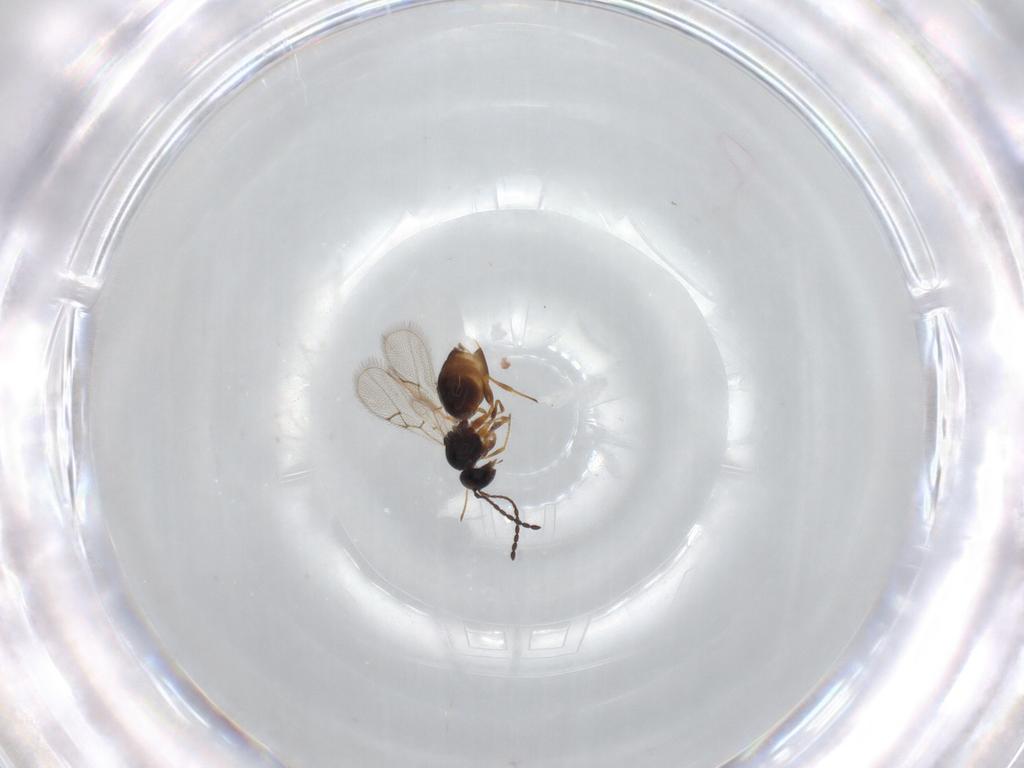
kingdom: Animalia
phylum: Arthropoda
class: Insecta
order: Hymenoptera
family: Figitidae
